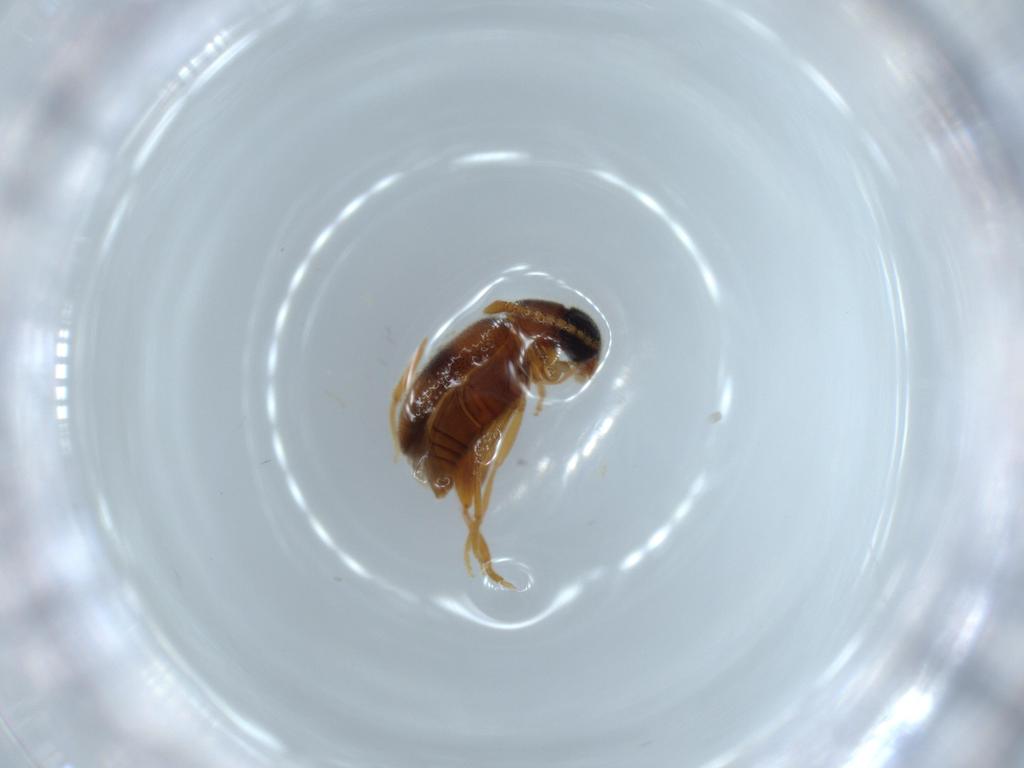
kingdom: Animalia
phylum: Arthropoda
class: Insecta
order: Coleoptera
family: Aderidae
